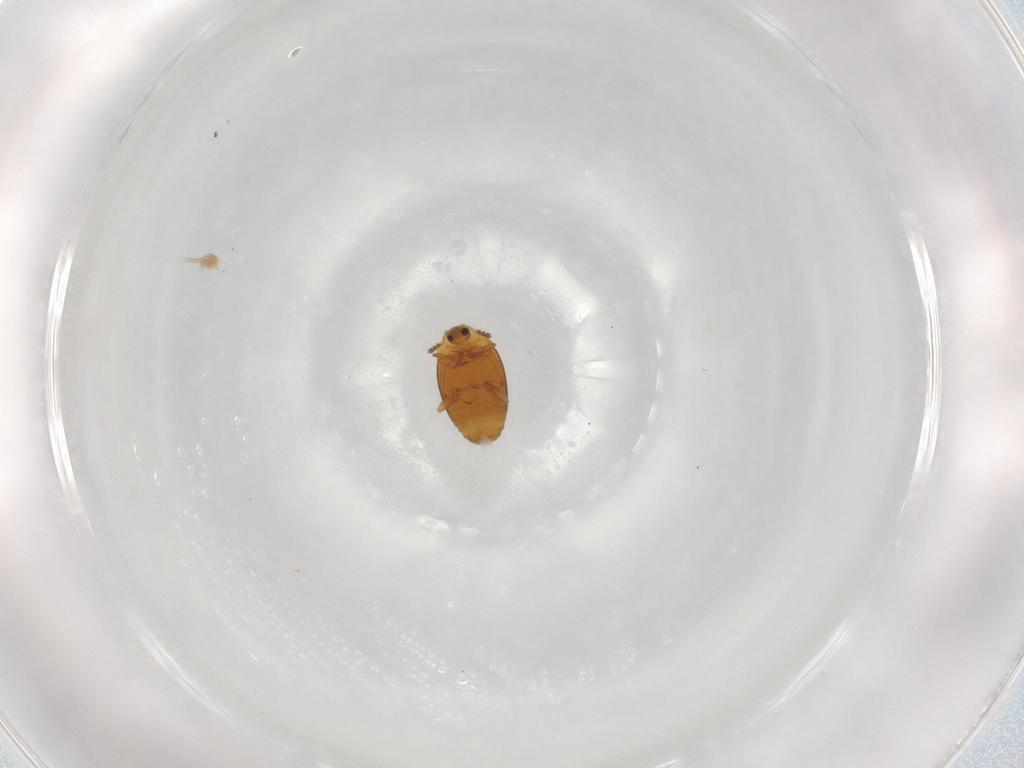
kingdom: Animalia
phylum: Arthropoda
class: Insecta
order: Coleoptera
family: Corylophidae
